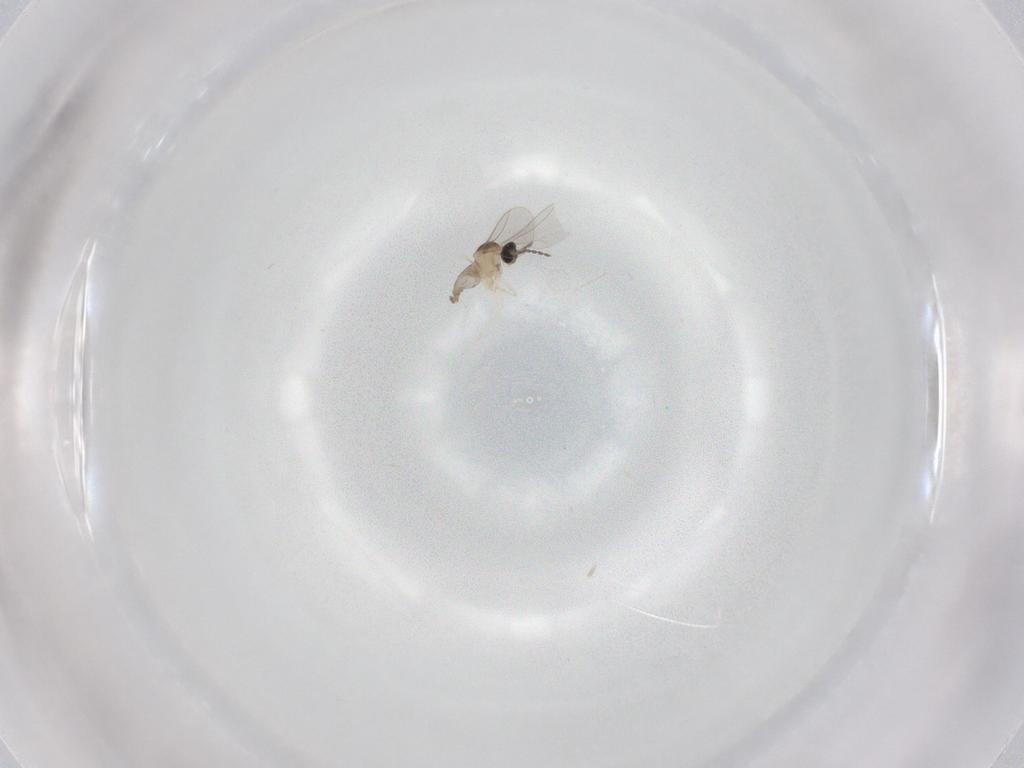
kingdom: Animalia
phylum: Arthropoda
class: Insecta
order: Diptera
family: Cecidomyiidae
